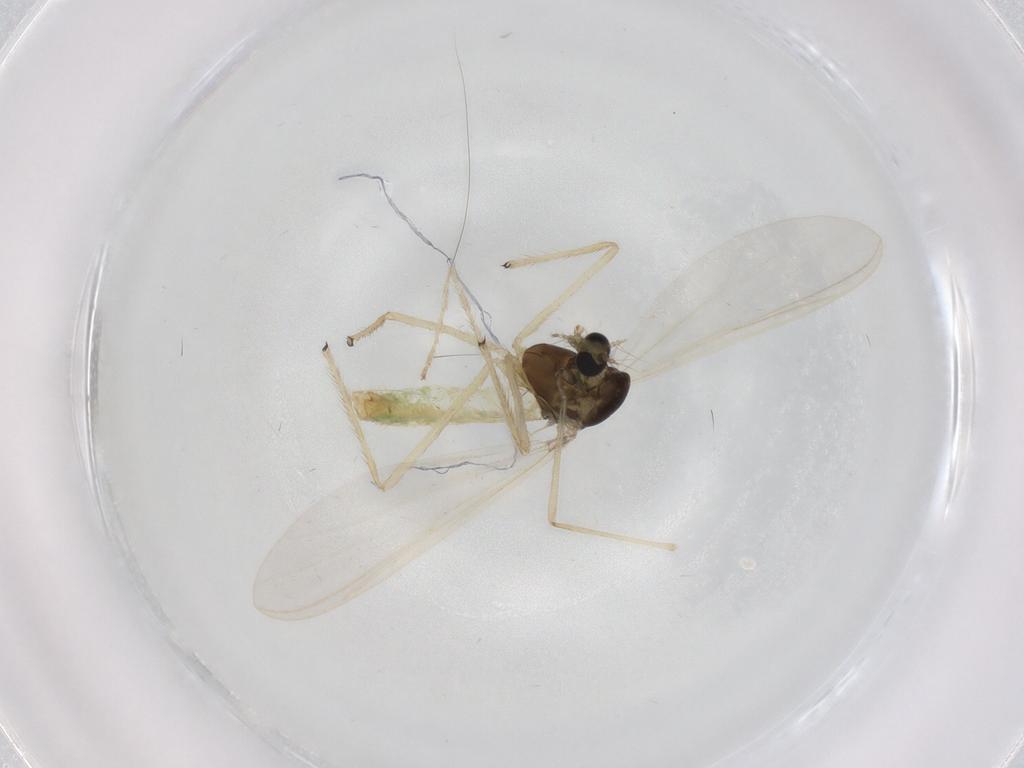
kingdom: Animalia
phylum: Arthropoda
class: Insecta
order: Diptera
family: Chironomidae
